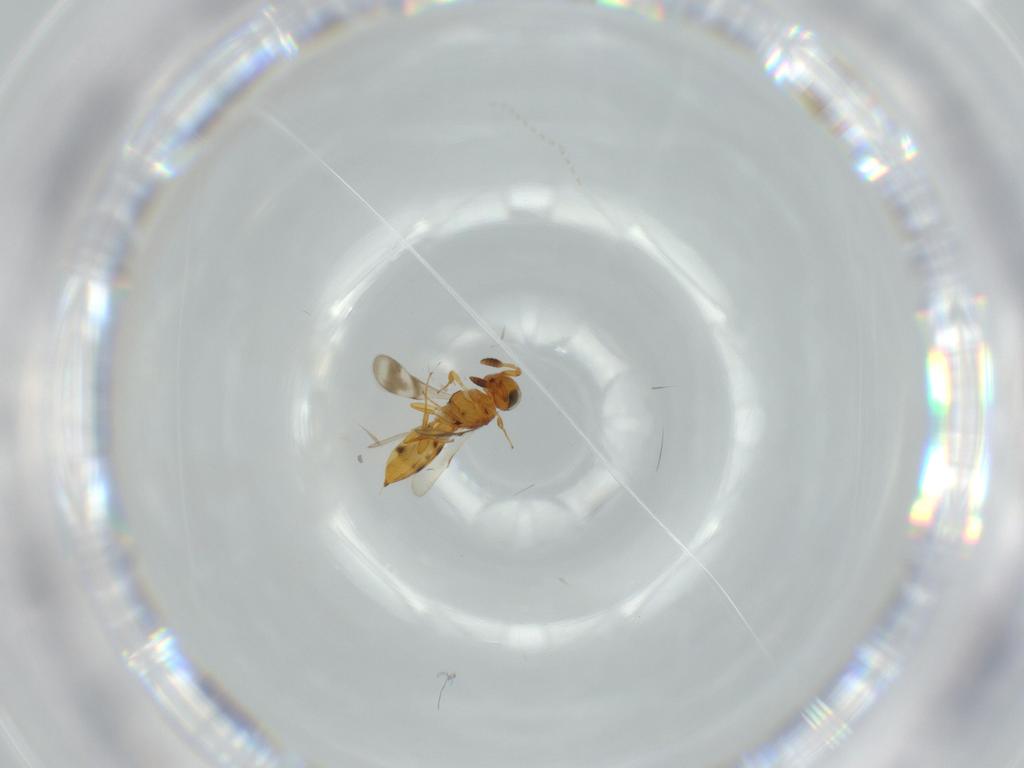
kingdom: Animalia
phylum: Arthropoda
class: Insecta
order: Hymenoptera
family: Scelionidae
